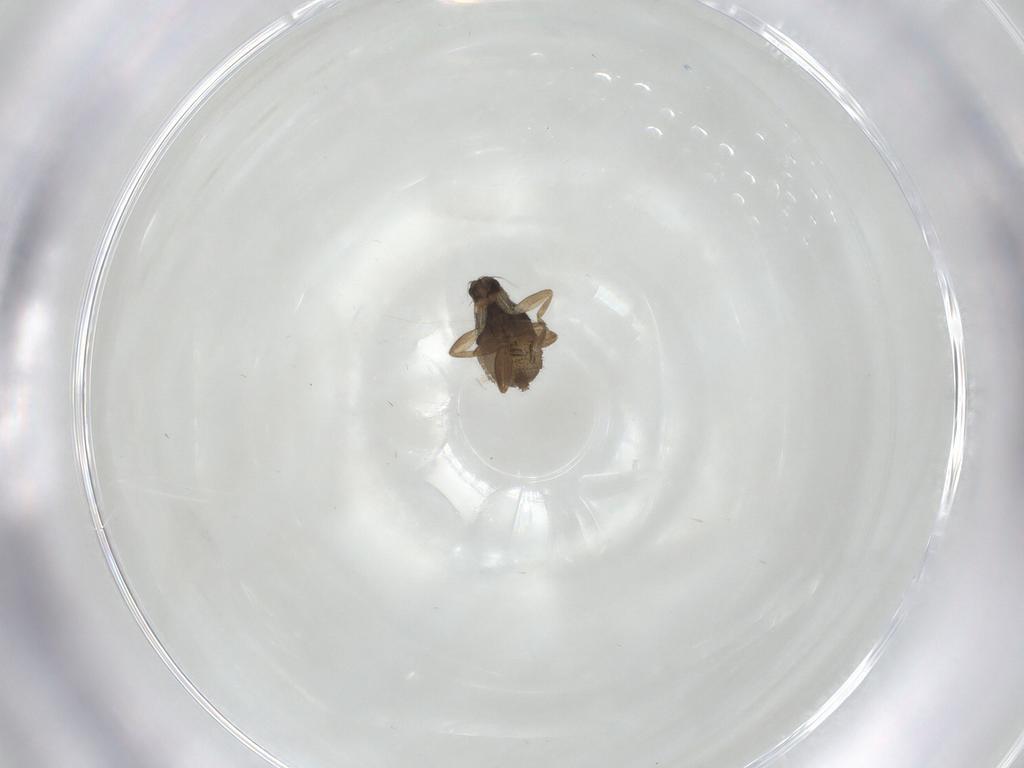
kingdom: Animalia
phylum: Arthropoda
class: Insecta
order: Diptera
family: Phoridae
